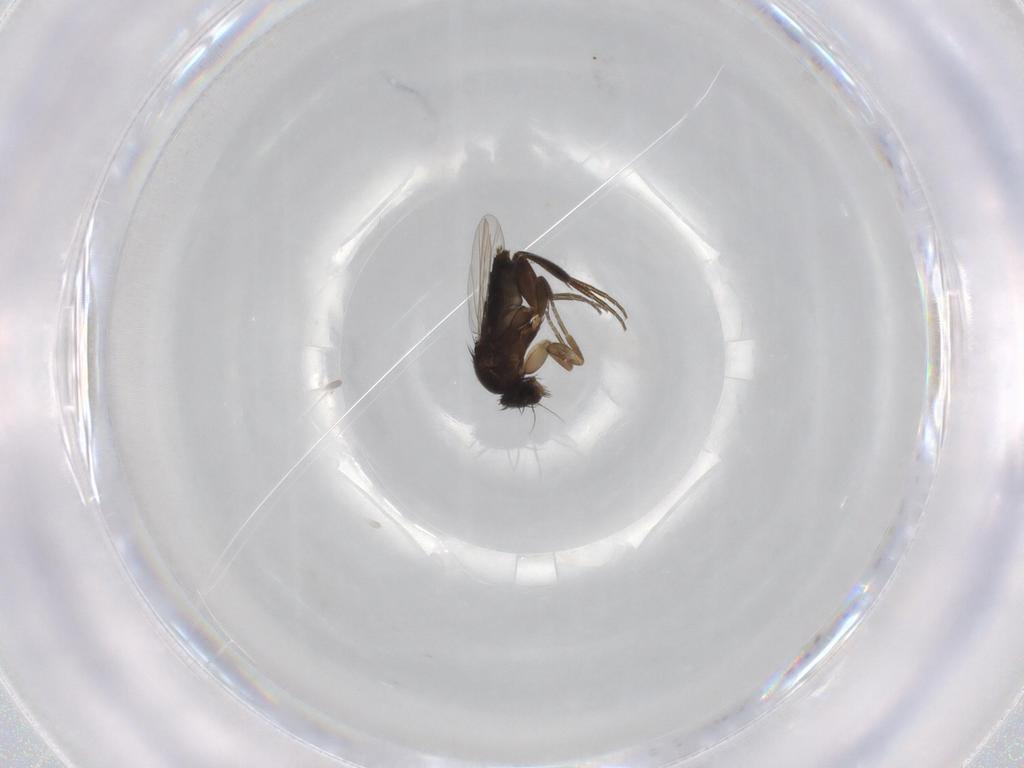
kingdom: Animalia
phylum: Arthropoda
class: Insecta
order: Diptera
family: Phoridae
